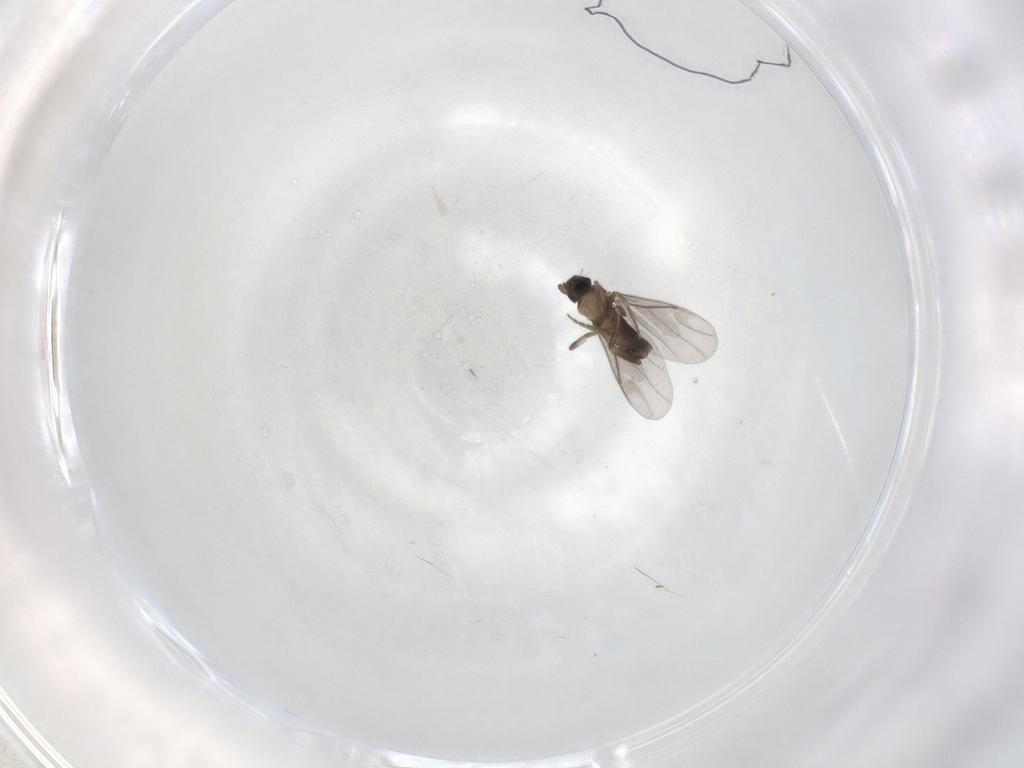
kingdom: Animalia
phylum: Arthropoda
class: Insecta
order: Diptera
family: Phoridae
